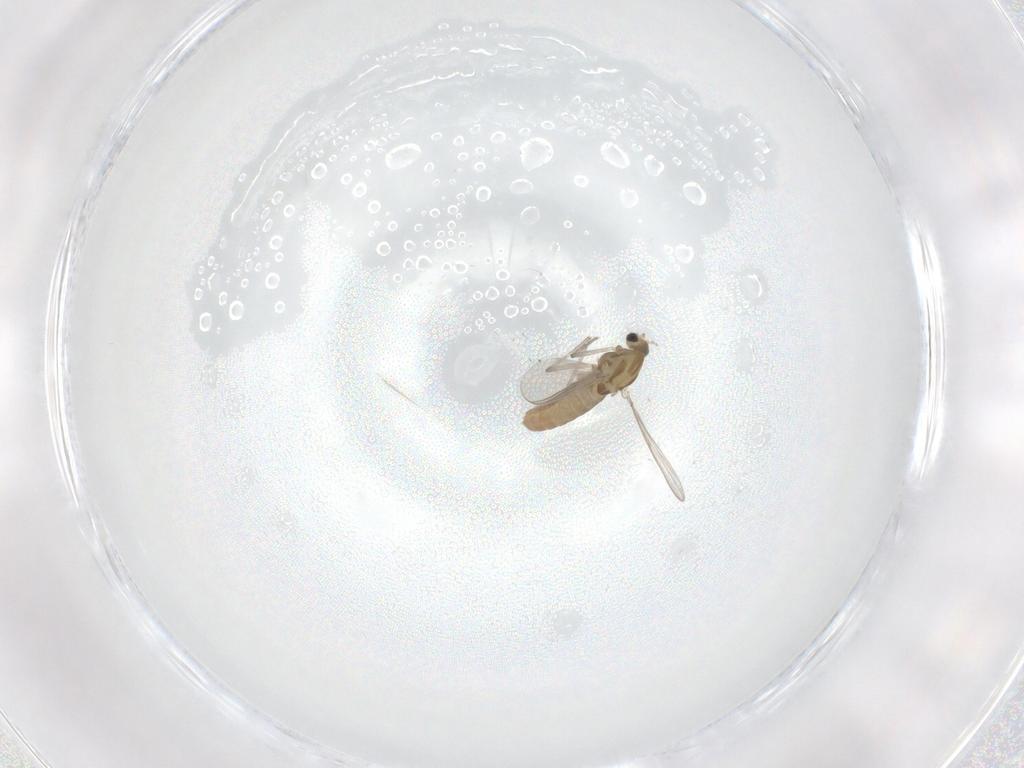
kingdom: Animalia
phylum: Arthropoda
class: Insecta
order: Diptera
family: Chironomidae
